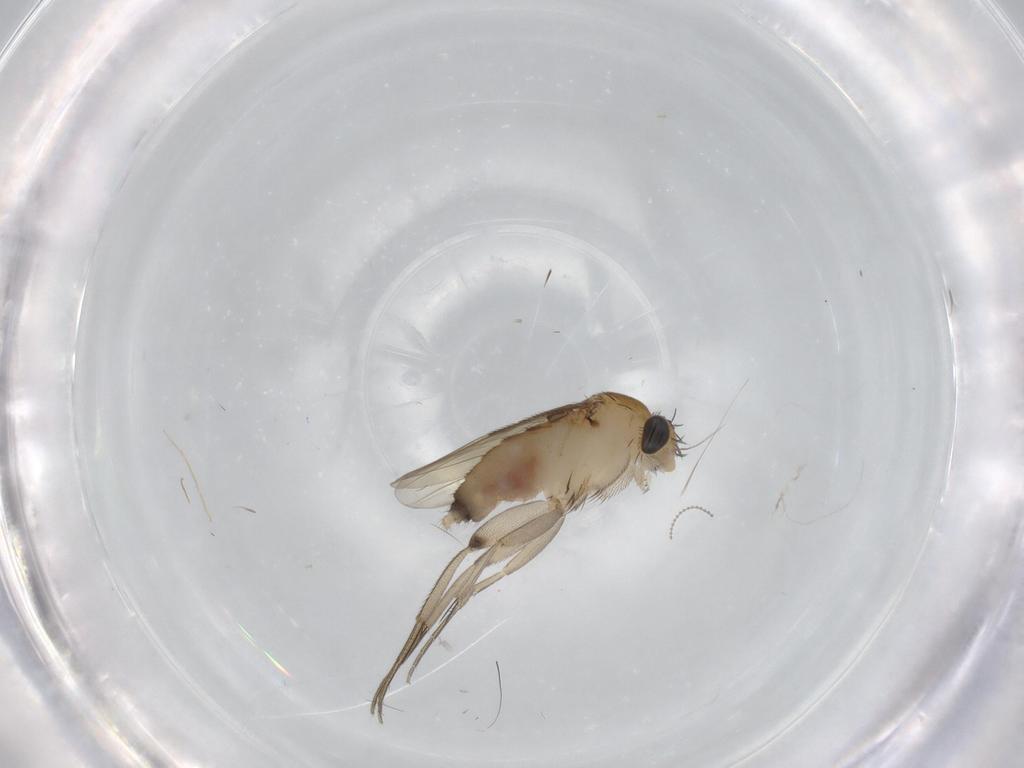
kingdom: Animalia
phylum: Arthropoda
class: Insecta
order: Diptera
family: Phoridae
